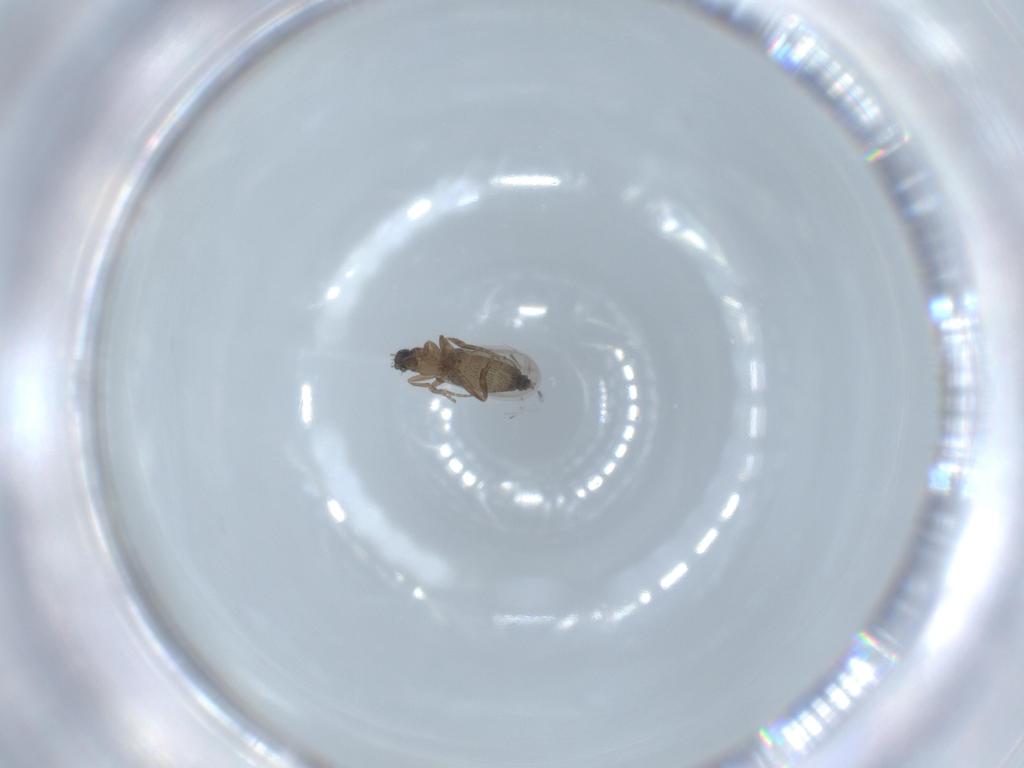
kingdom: Animalia
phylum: Arthropoda
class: Insecta
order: Diptera
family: Phoridae
